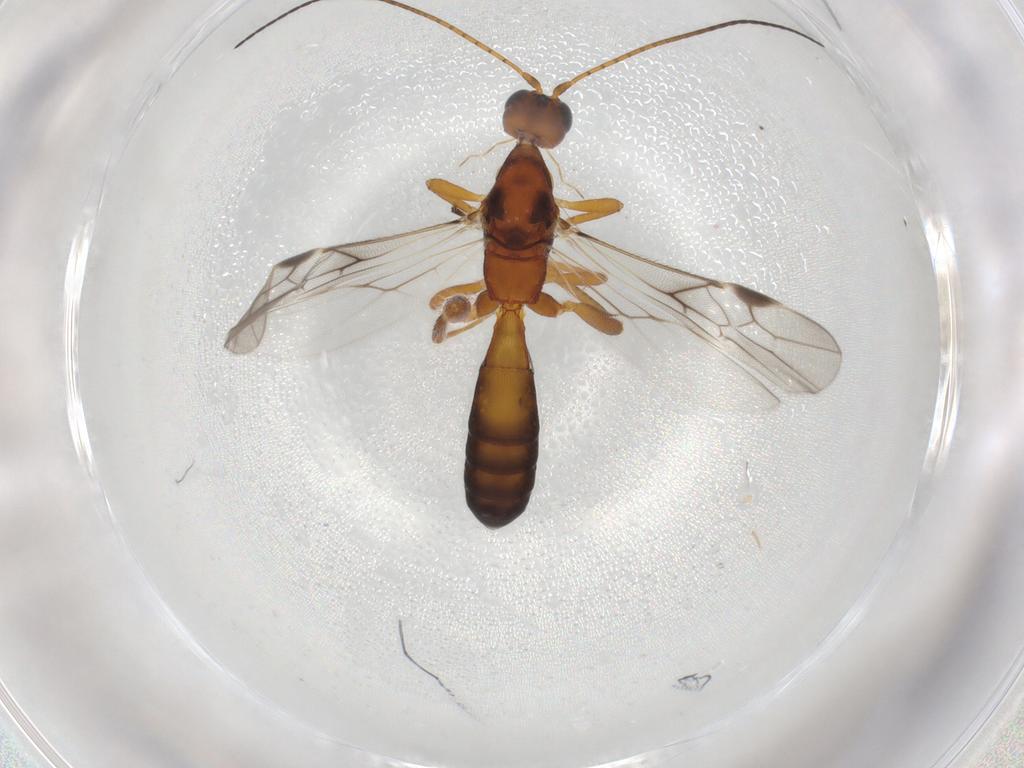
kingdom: Animalia
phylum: Arthropoda
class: Insecta
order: Hymenoptera
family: Braconidae
